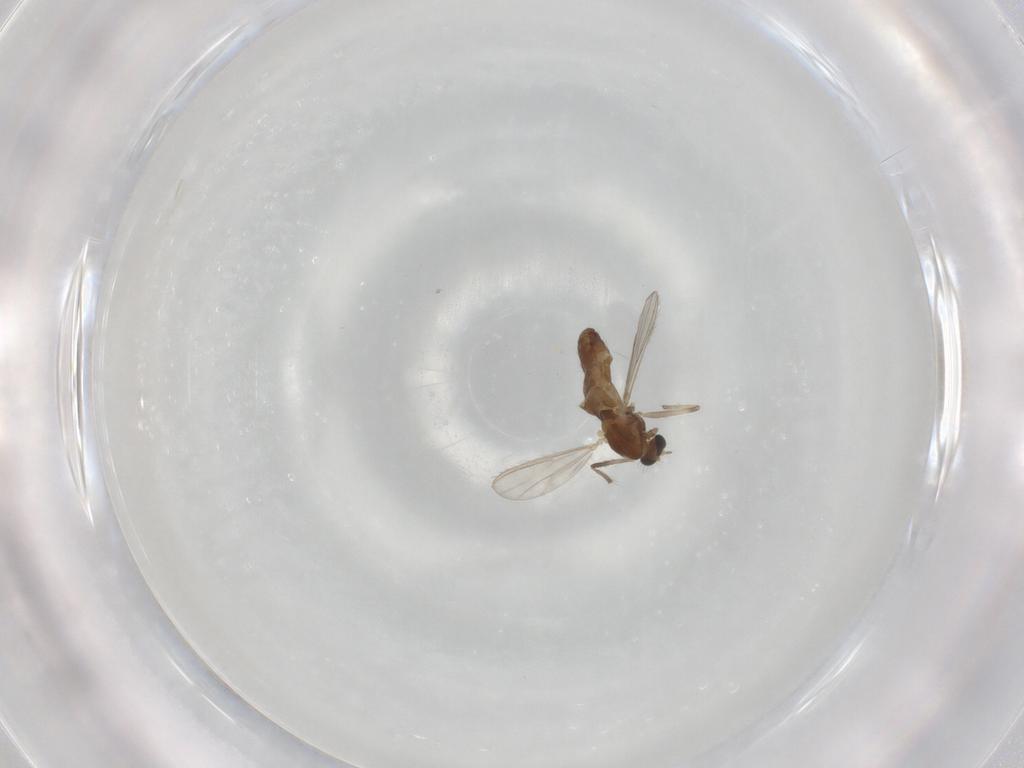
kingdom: Animalia
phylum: Arthropoda
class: Insecta
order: Diptera
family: Chironomidae
